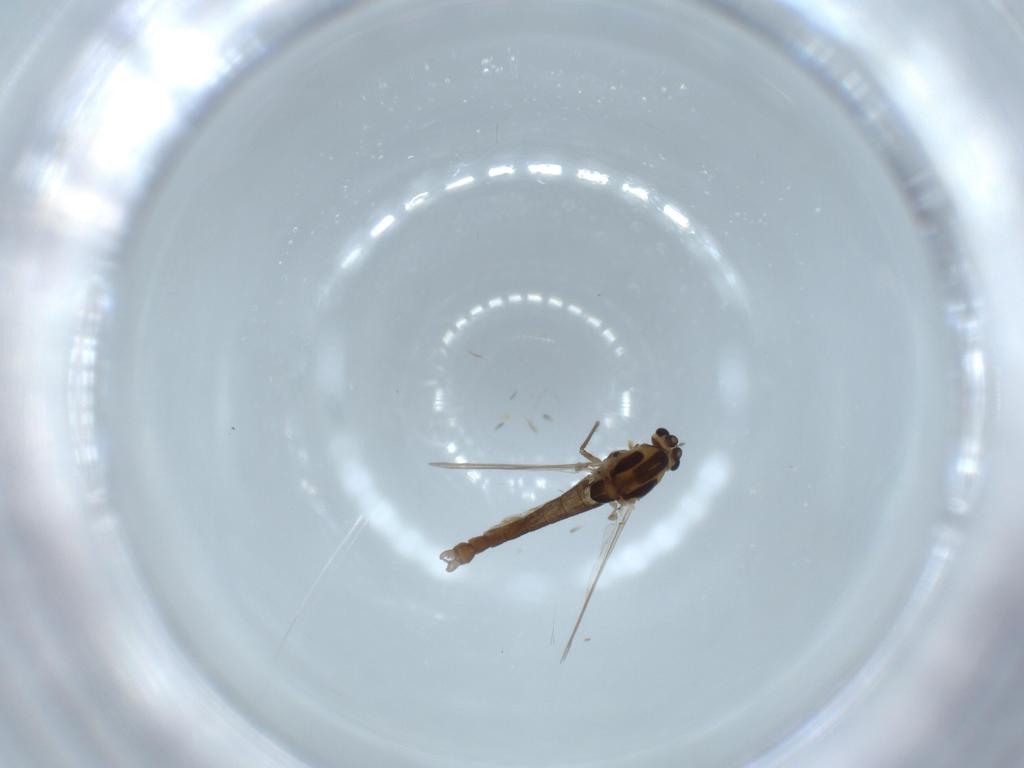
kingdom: Animalia
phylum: Arthropoda
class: Insecta
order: Diptera
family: Chironomidae
